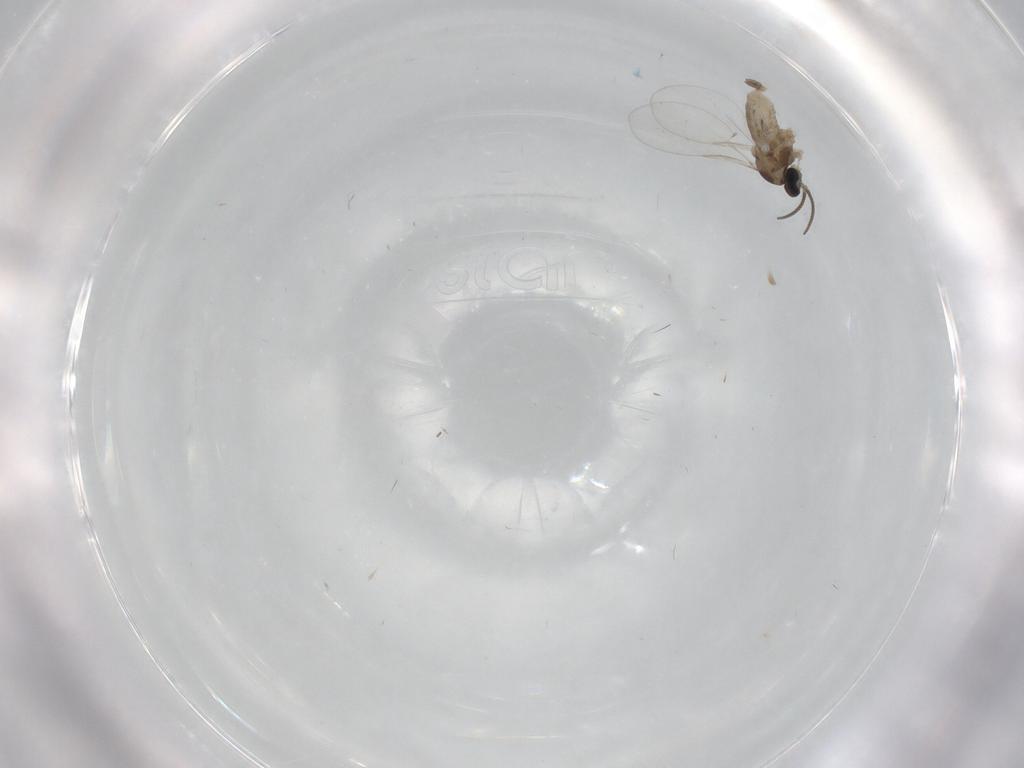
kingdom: Animalia
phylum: Arthropoda
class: Insecta
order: Diptera
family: Cecidomyiidae
